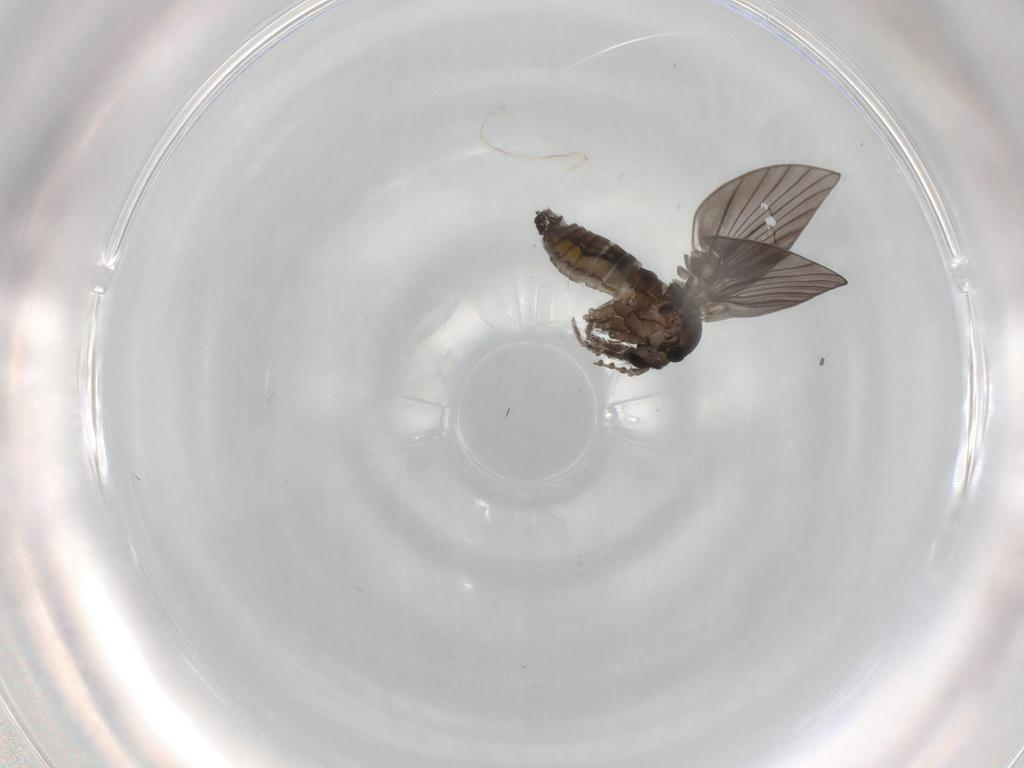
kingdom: Animalia
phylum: Arthropoda
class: Insecta
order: Diptera
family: Psychodidae
